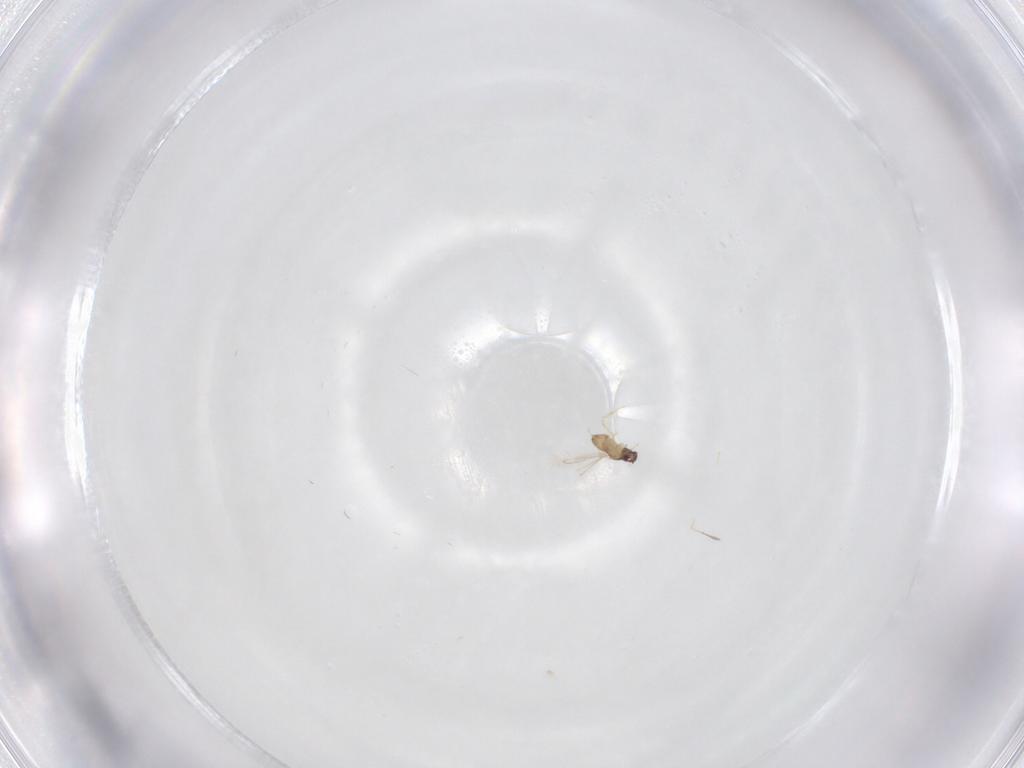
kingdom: Animalia
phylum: Arthropoda
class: Insecta
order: Hymenoptera
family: Mymaridae
